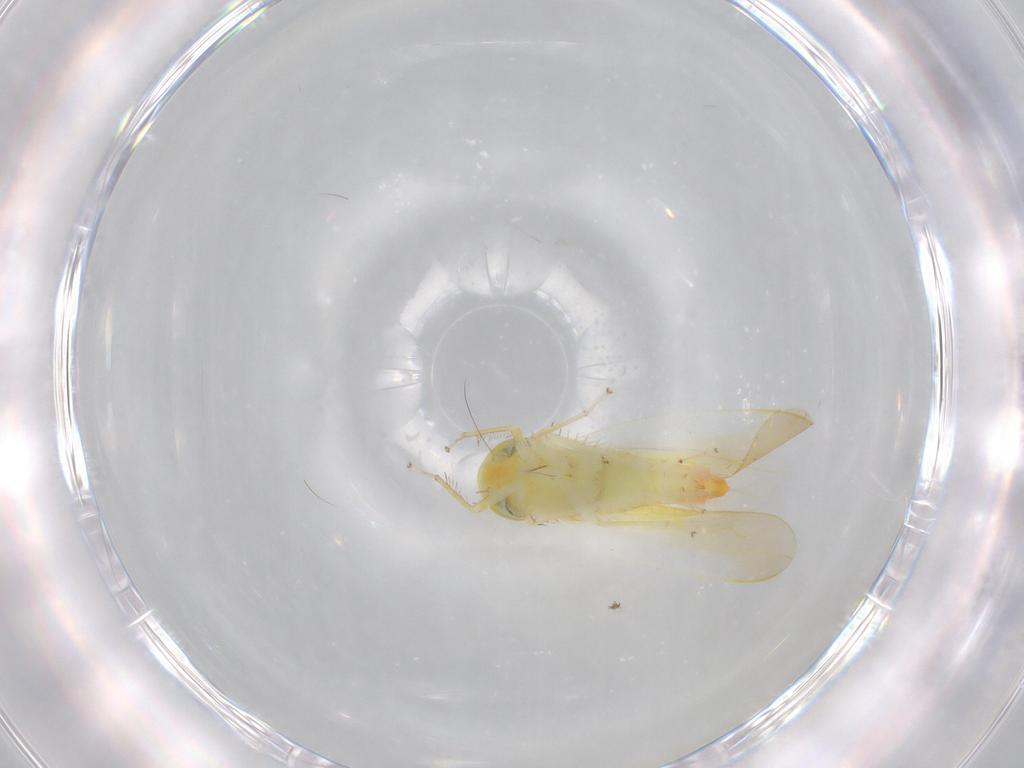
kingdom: Animalia
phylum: Arthropoda
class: Insecta
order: Hemiptera
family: Cicadellidae
